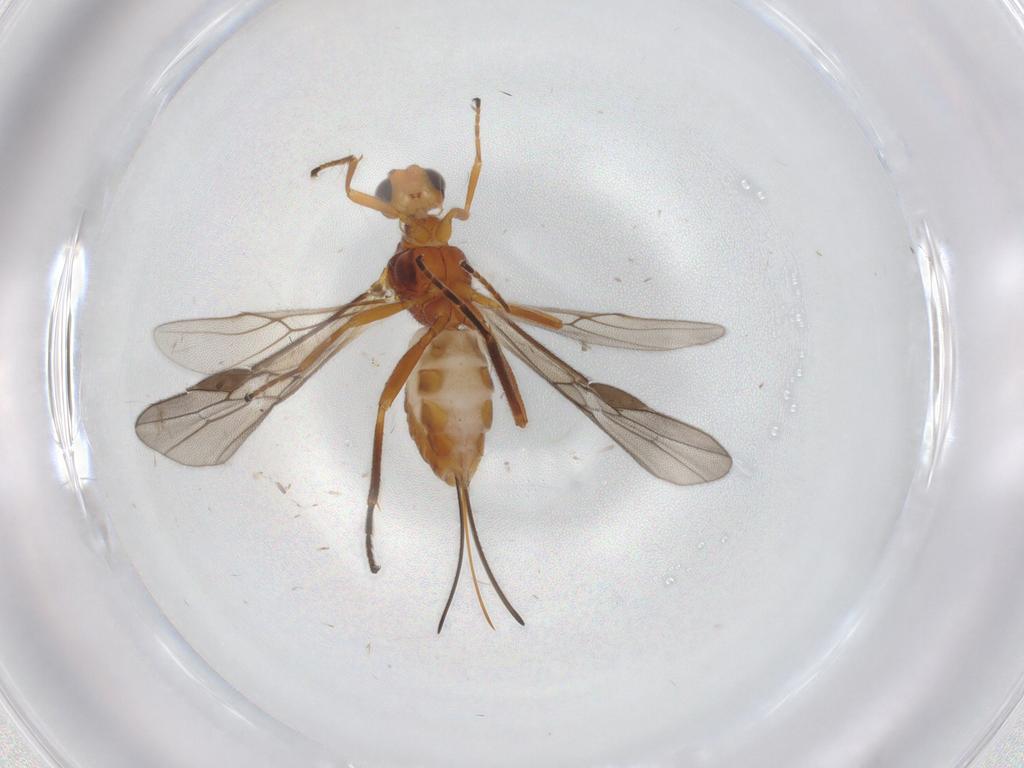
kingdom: Animalia
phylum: Arthropoda
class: Insecta
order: Hymenoptera
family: Braconidae
